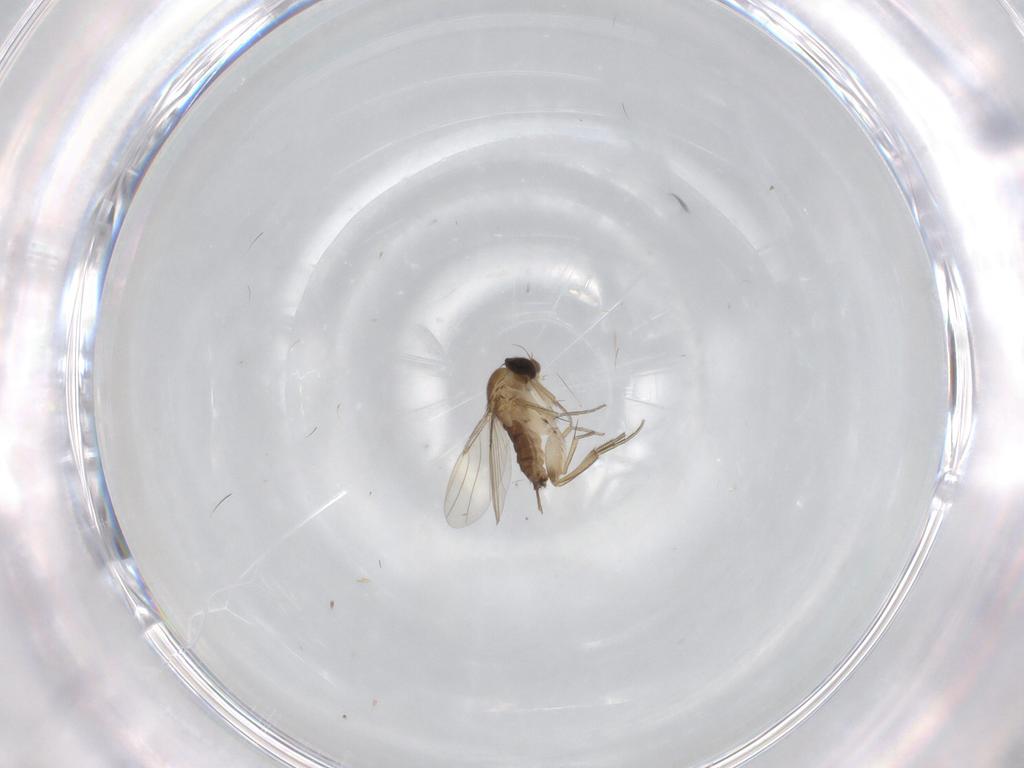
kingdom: Animalia
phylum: Arthropoda
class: Insecta
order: Diptera
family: Phoridae
